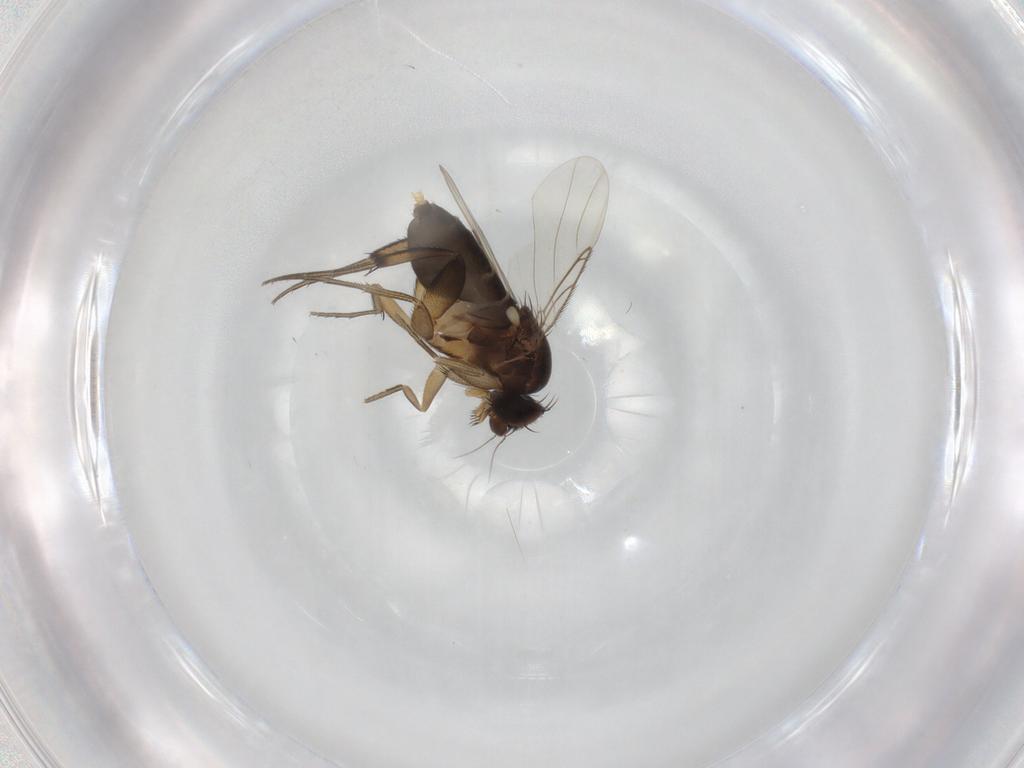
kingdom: Animalia
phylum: Arthropoda
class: Insecta
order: Diptera
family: Phoridae
